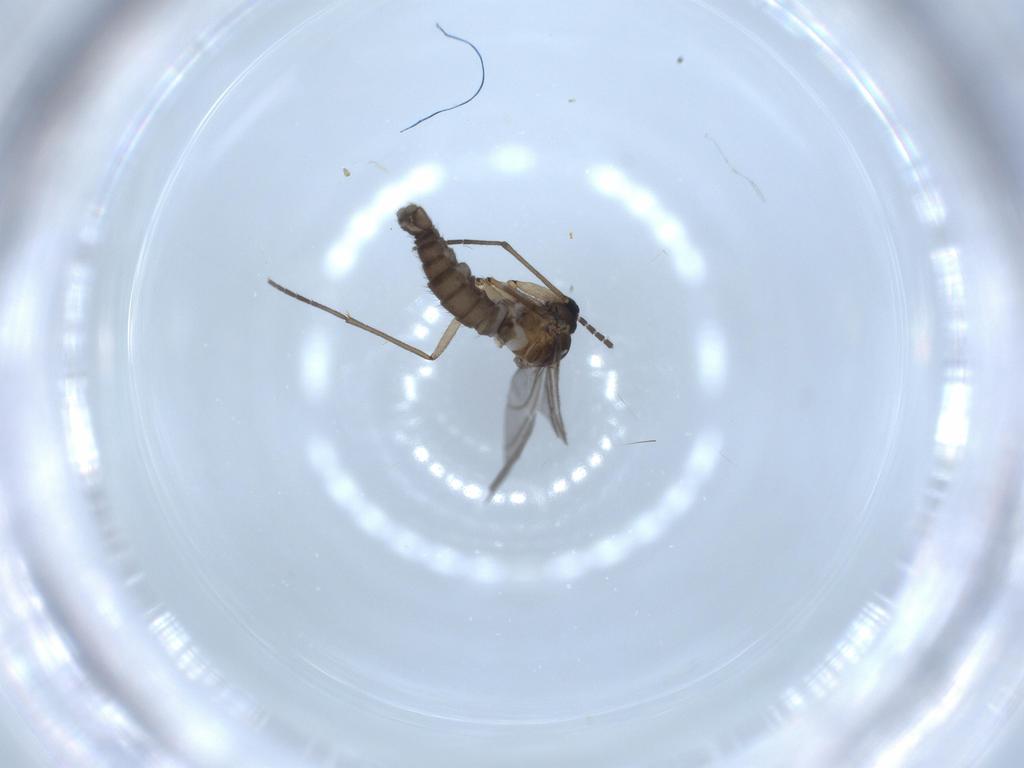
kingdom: Animalia
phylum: Arthropoda
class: Insecta
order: Diptera
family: Sciaridae
